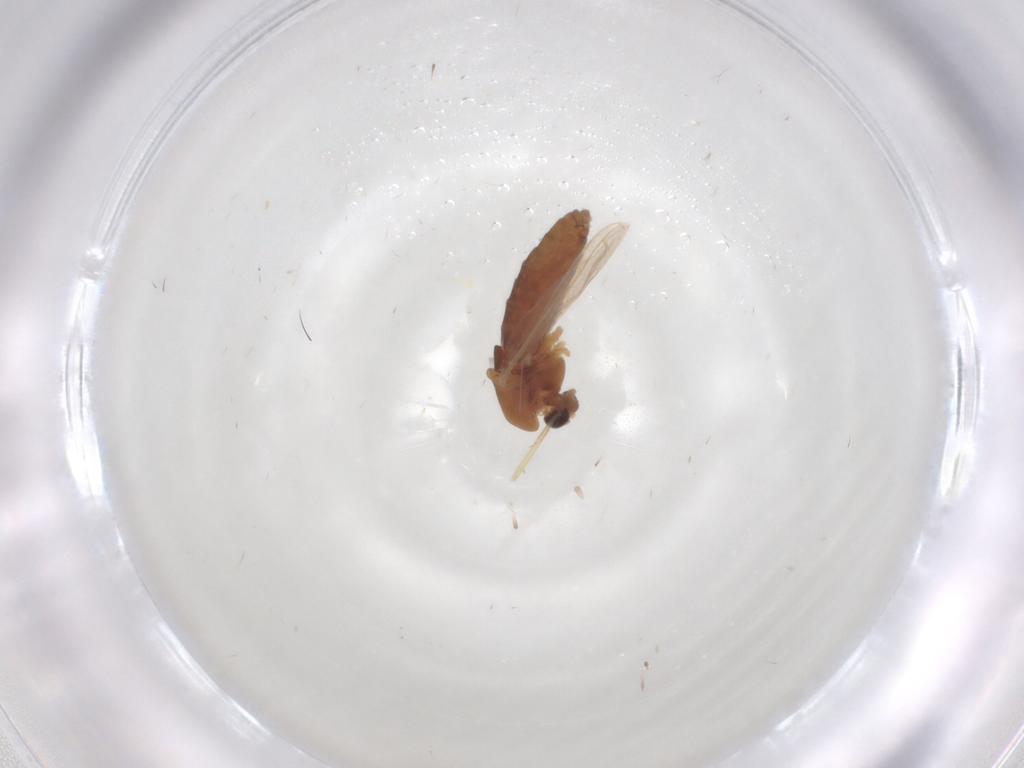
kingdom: Animalia
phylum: Arthropoda
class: Insecta
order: Diptera
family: Chironomidae
